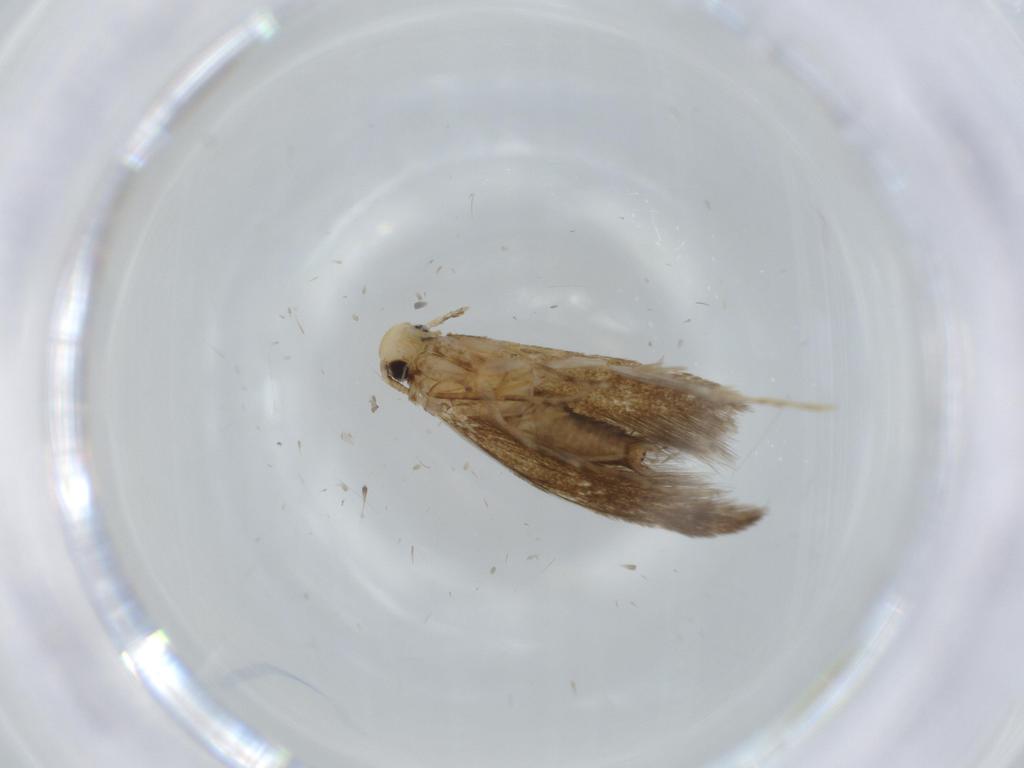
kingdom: Animalia
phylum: Arthropoda
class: Insecta
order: Lepidoptera
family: Tineidae
